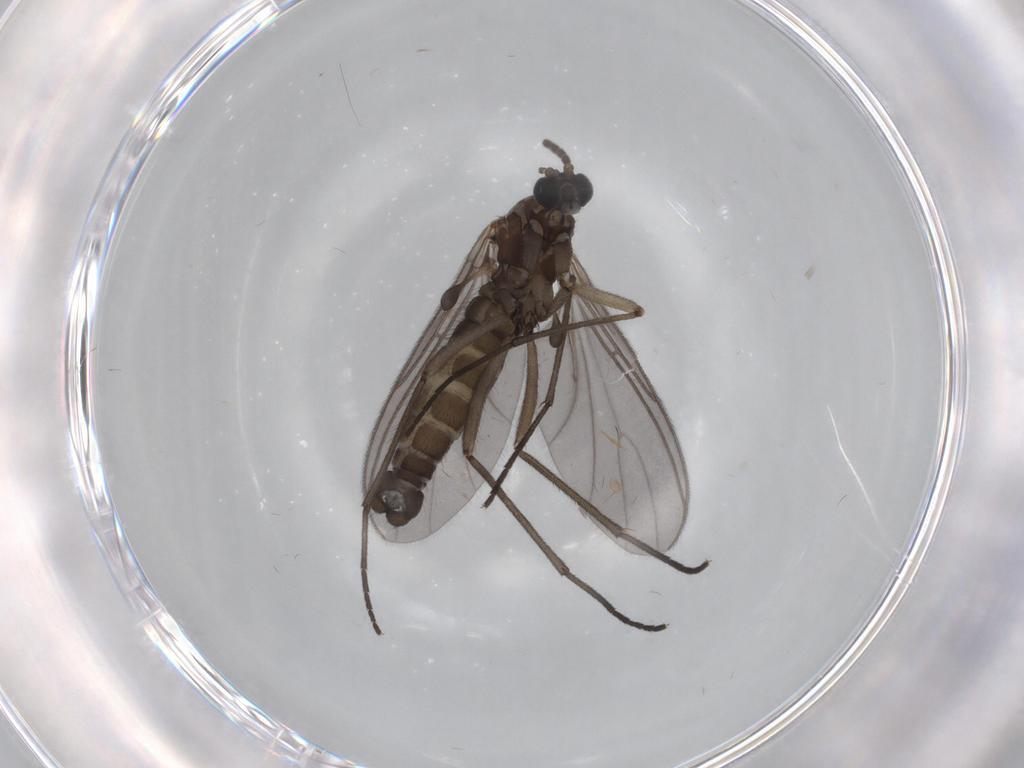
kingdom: Animalia
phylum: Arthropoda
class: Insecta
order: Diptera
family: Sciaridae
